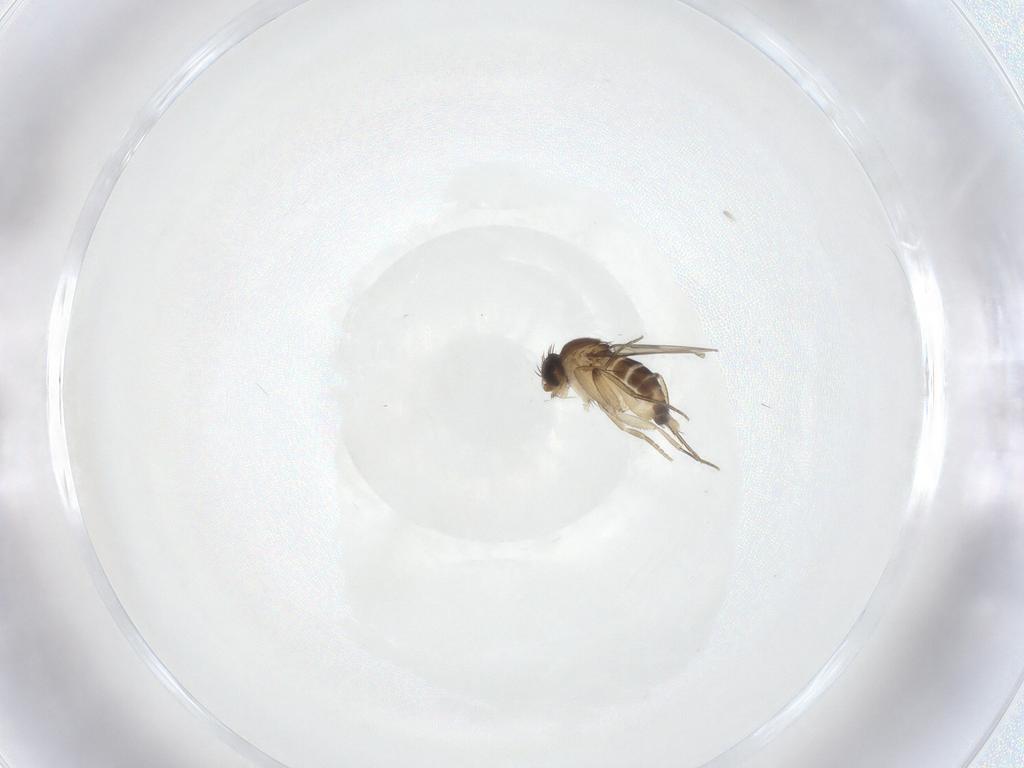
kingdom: Animalia
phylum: Arthropoda
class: Insecta
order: Diptera
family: Phoridae
